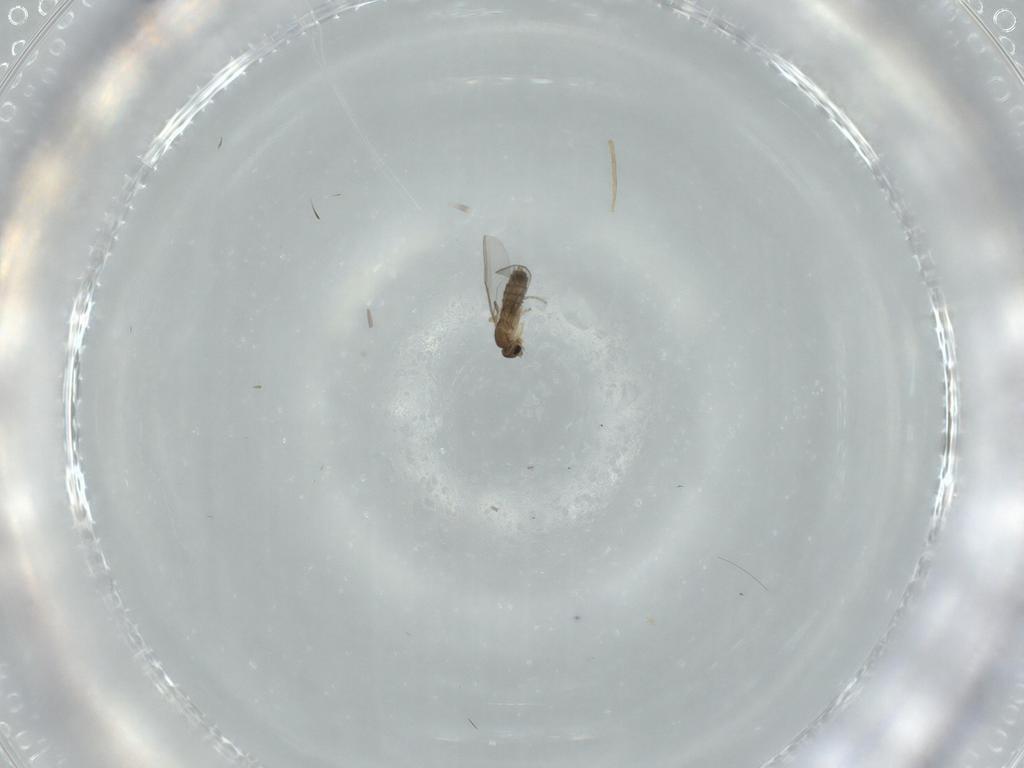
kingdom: Animalia
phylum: Arthropoda
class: Insecta
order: Diptera
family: Phoridae
